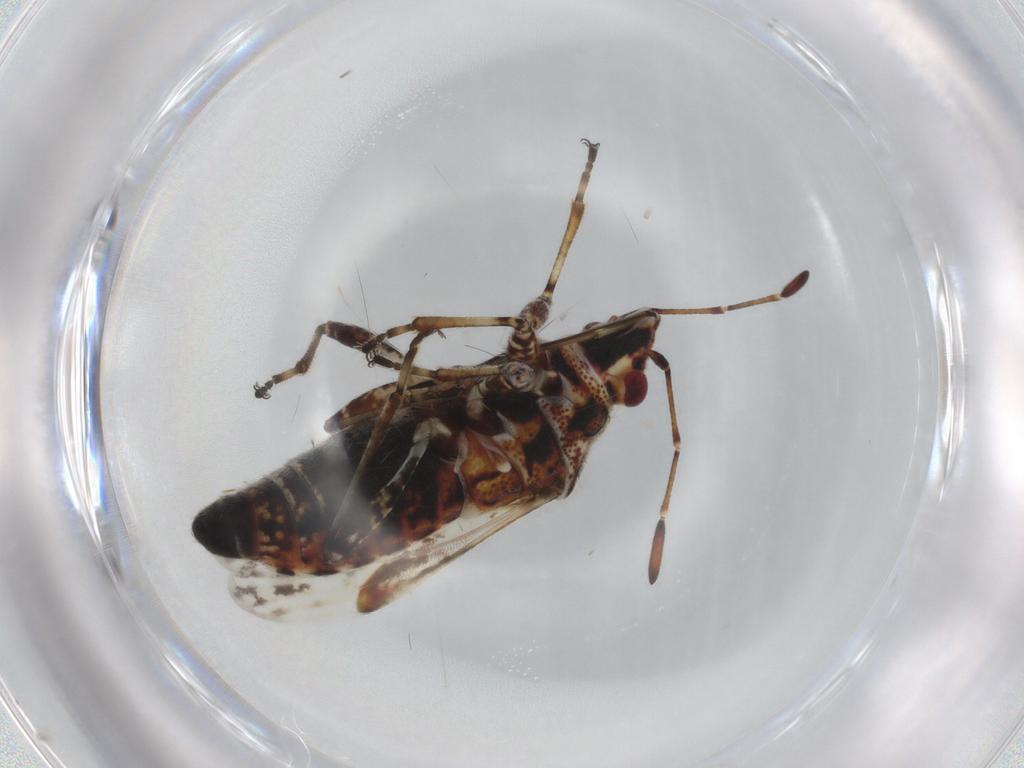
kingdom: Animalia
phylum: Arthropoda
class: Insecta
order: Hemiptera
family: Lygaeidae
